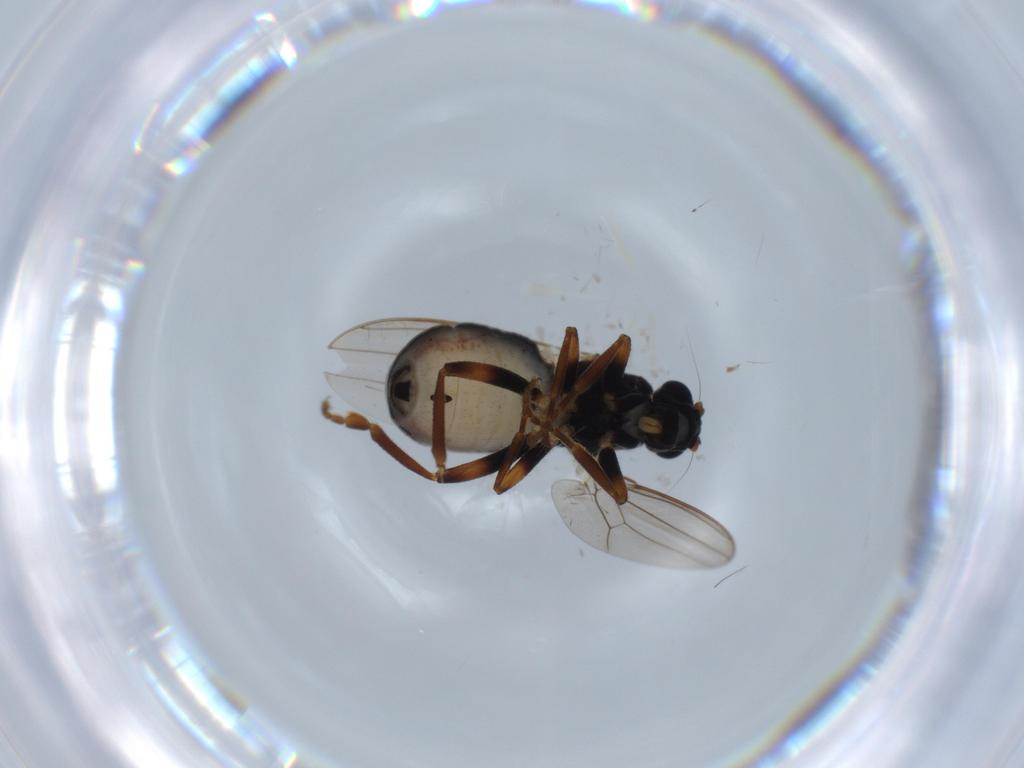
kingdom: Animalia
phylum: Arthropoda
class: Insecta
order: Diptera
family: Sphaeroceridae
